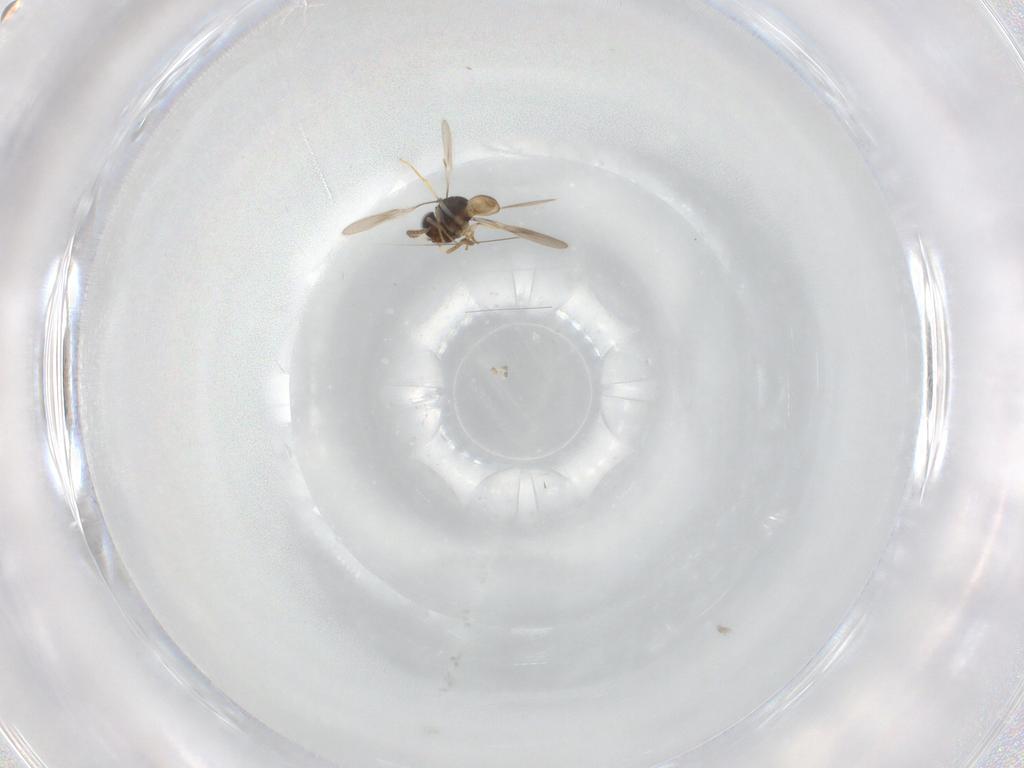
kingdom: Animalia
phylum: Arthropoda
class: Insecta
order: Hymenoptera
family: Scelionidae
